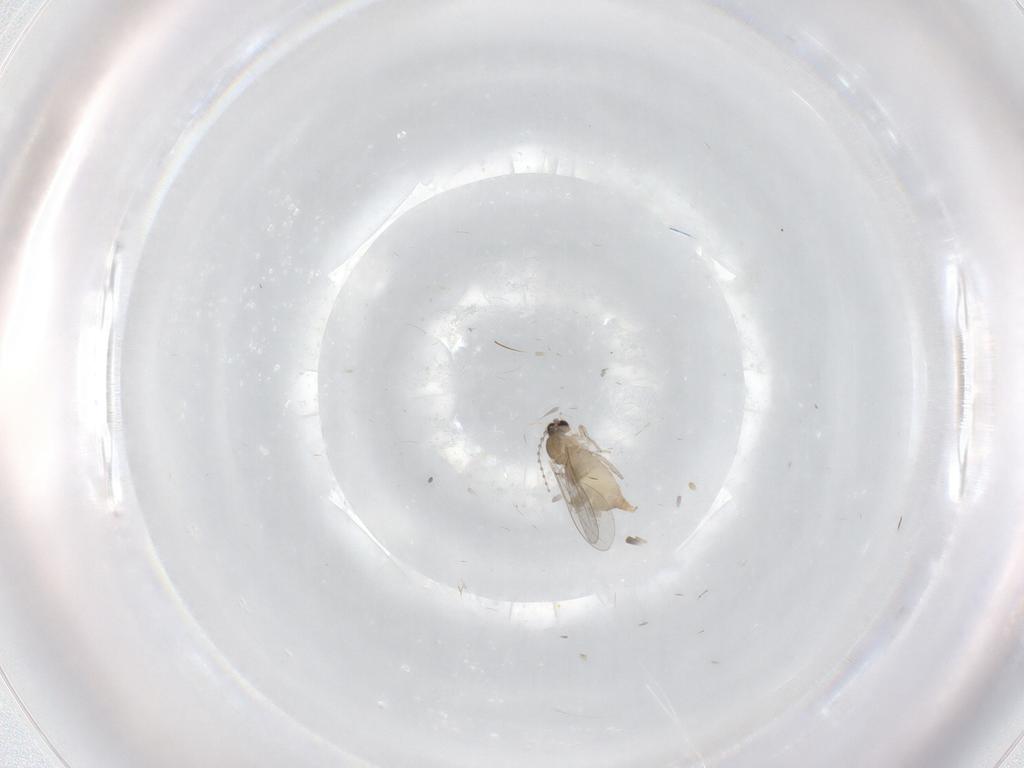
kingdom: Animalia
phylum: Arthropoda
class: Insecta
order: Diptera
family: Cecidomyiidae
